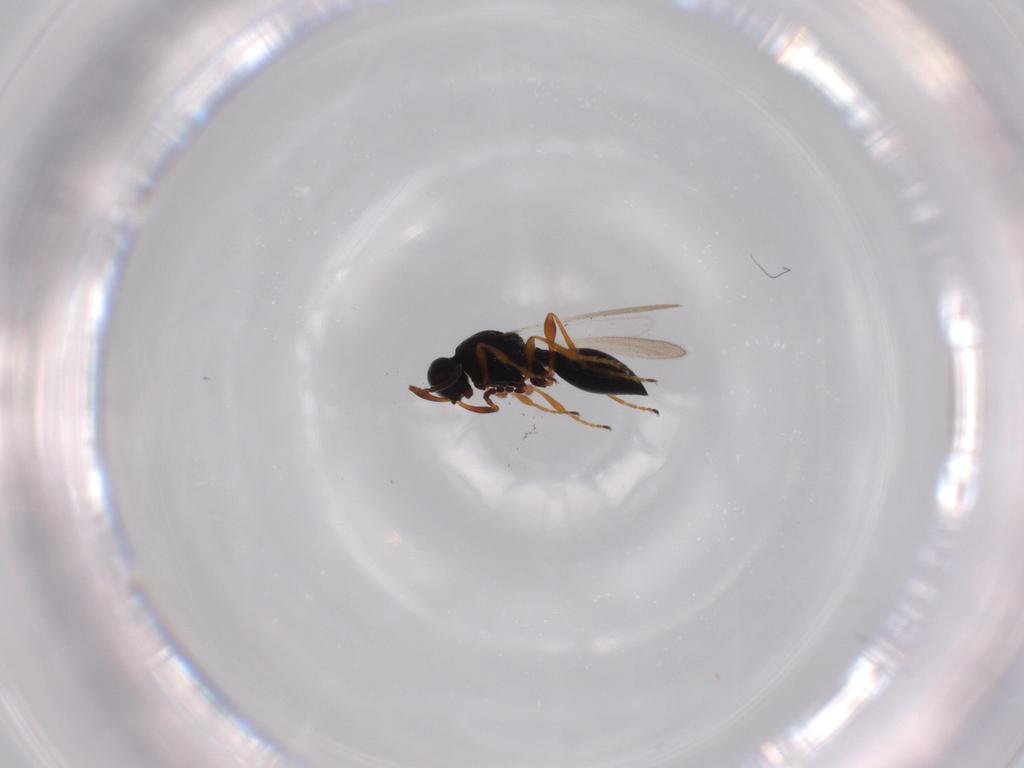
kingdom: Animalia
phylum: Arthropoda
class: Insecta
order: Hymenoptera
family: Platygastridae
